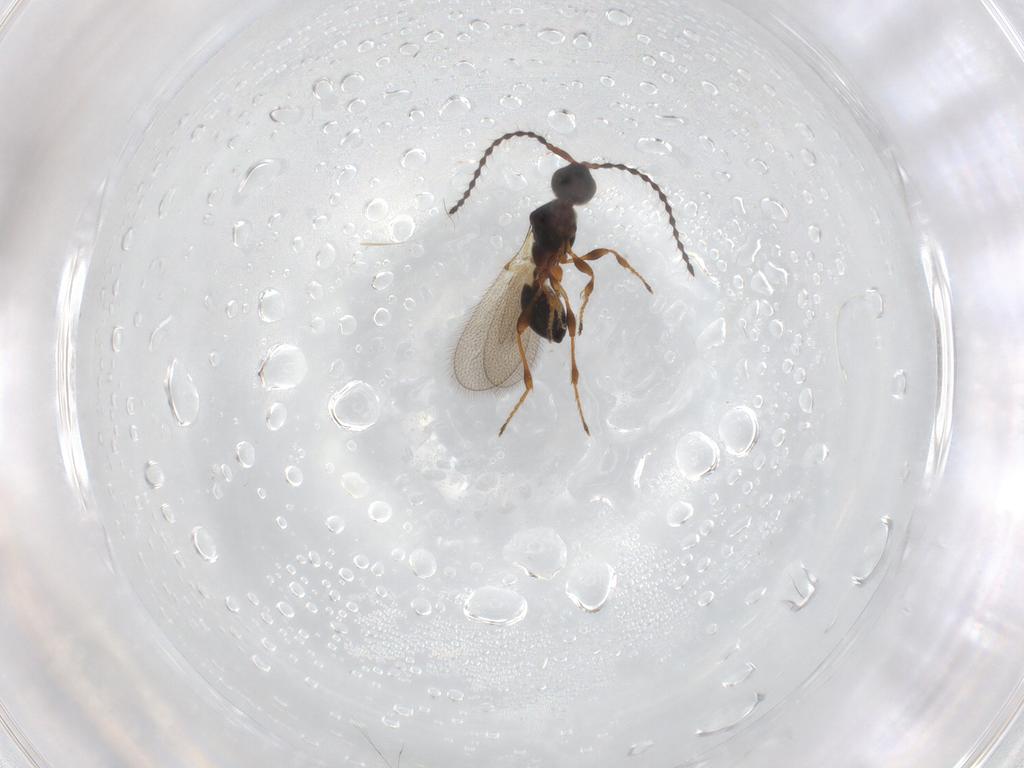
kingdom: Animalia
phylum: Arthropoda
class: Insecta
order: Hymenoptera
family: Diapriidae
